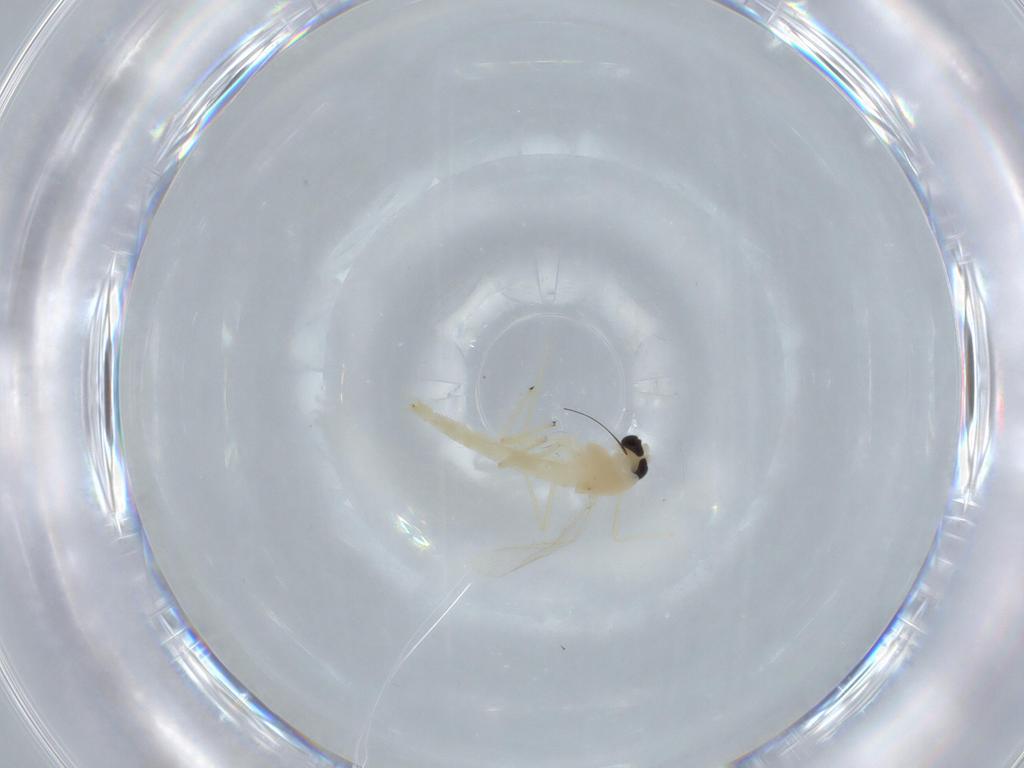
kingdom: Animalia
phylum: Arthropoda
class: Insecta
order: Diptera
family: Chironomidae
